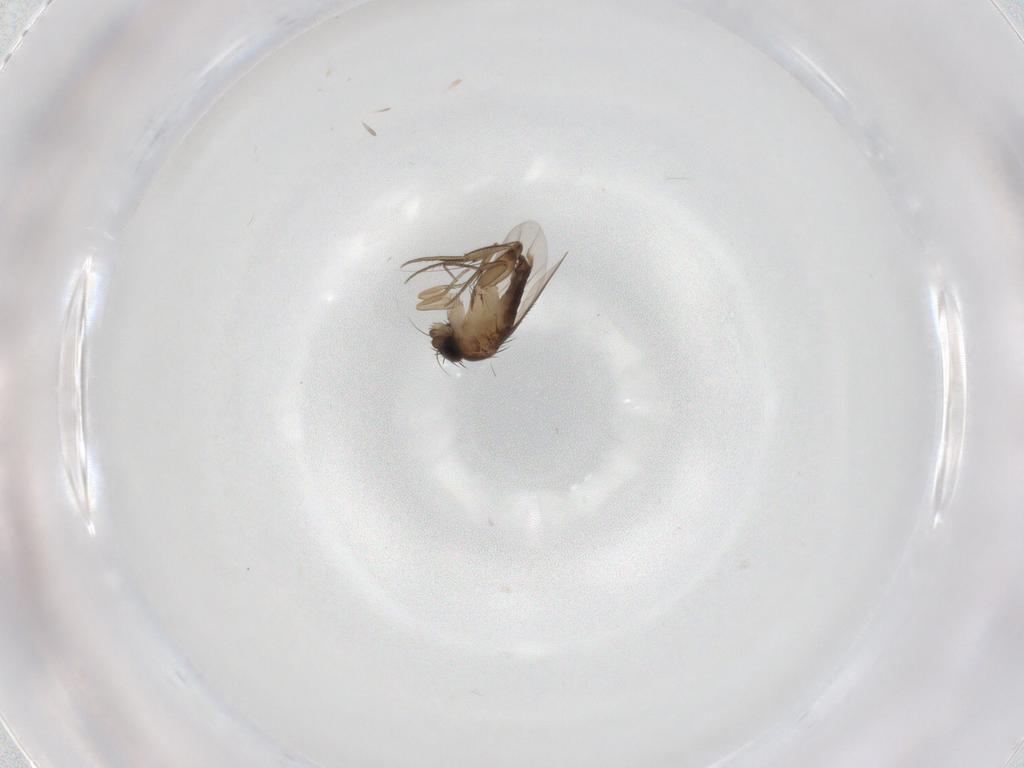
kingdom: Animalia
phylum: Arthropoda
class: Insecta
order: Diptera
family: Phoridae
